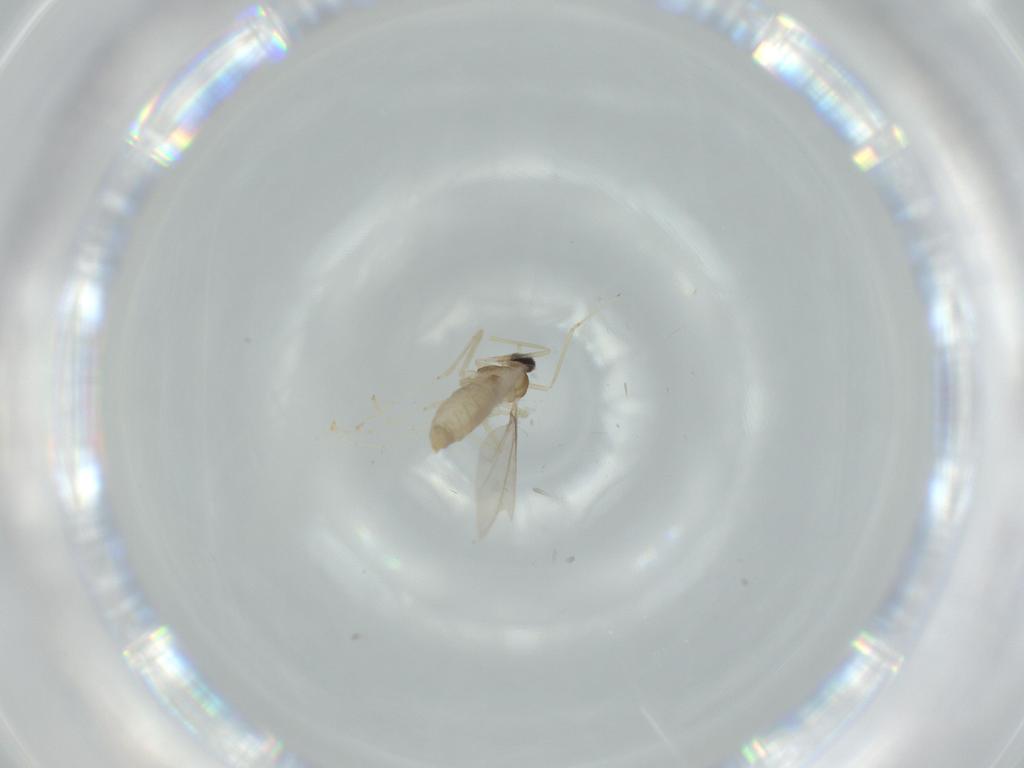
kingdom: Animalia
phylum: Arthropoda
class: Insecta
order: Diptera
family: Cecidomyiidae
